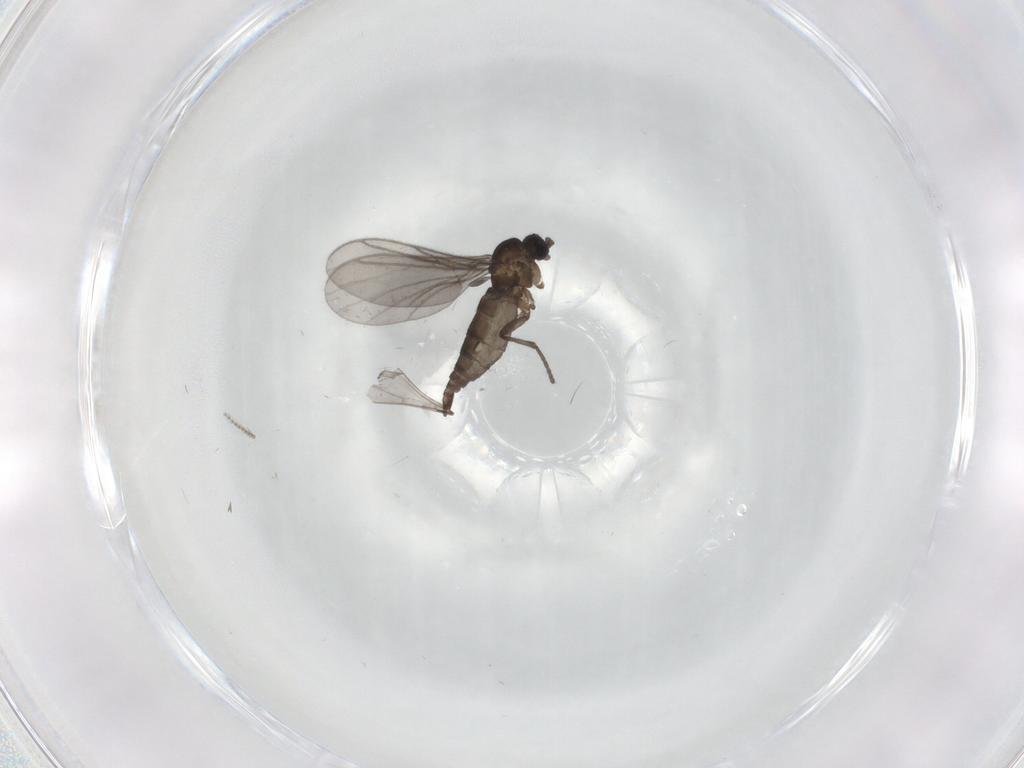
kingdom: Animalia
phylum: Arthropoda
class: Insecta
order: Diptera
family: Psychodidae
